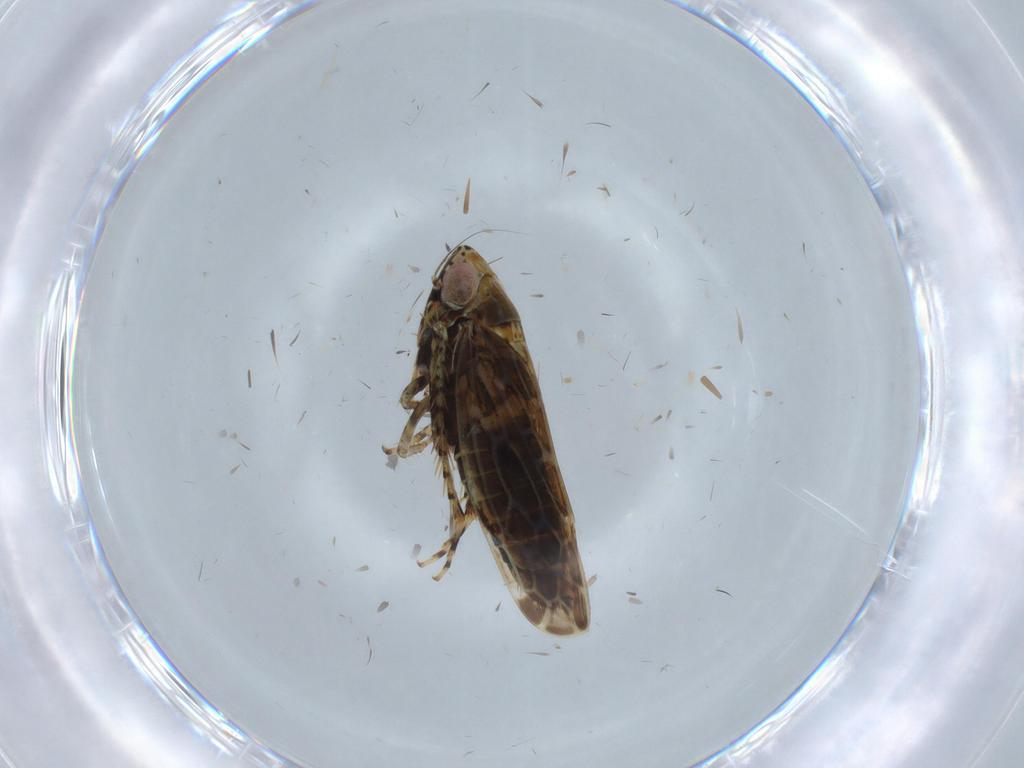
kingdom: Animalia
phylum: Arthropoda
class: Insecta
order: Hemiptera
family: Cicadellidae
